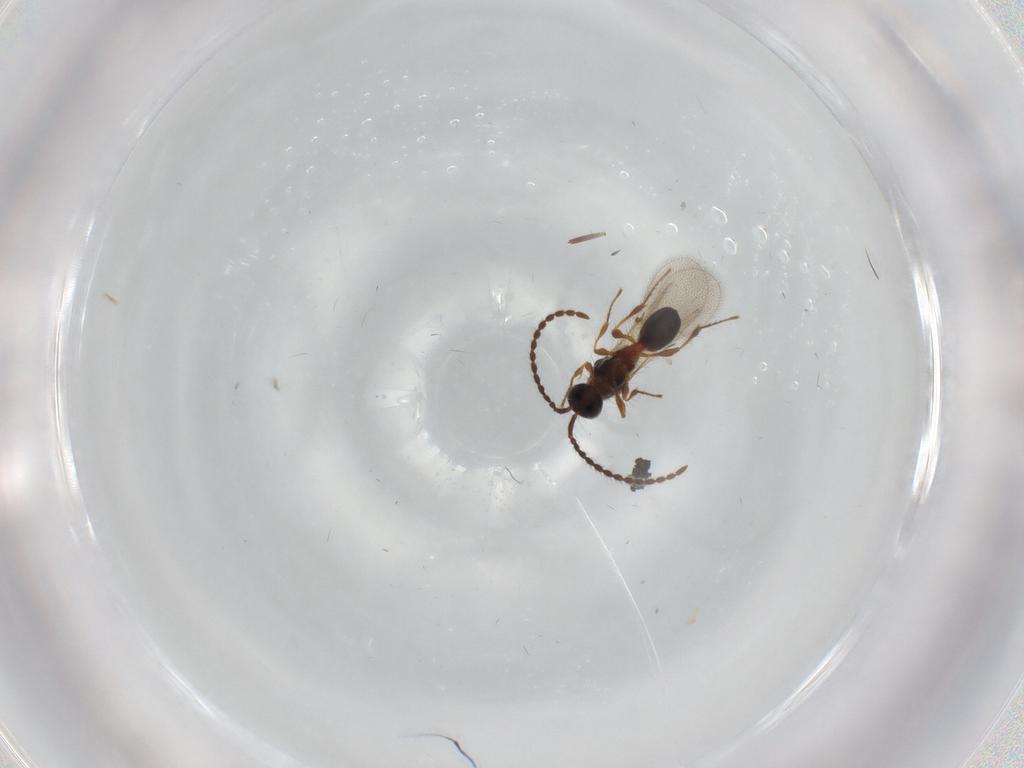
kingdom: Animalia
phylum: Arthropoda
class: Insecta
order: Hymenoptera
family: Diapriidae
